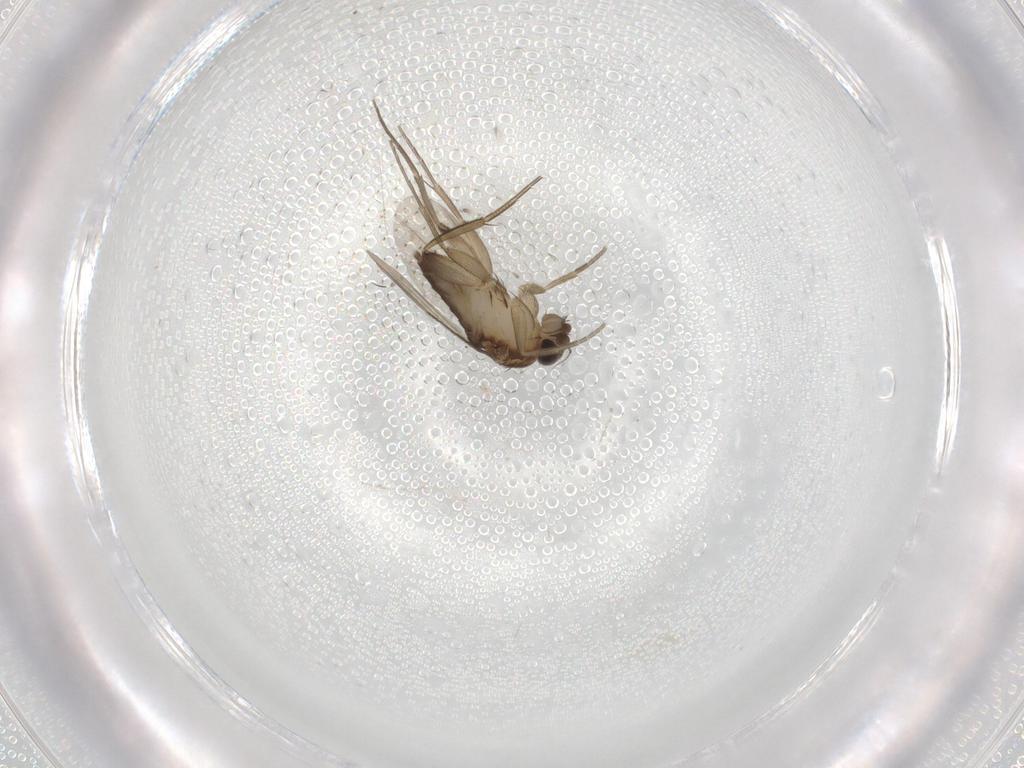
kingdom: Animalia
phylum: Arthropoda
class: Insecta
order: Diptera
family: Phoridae
